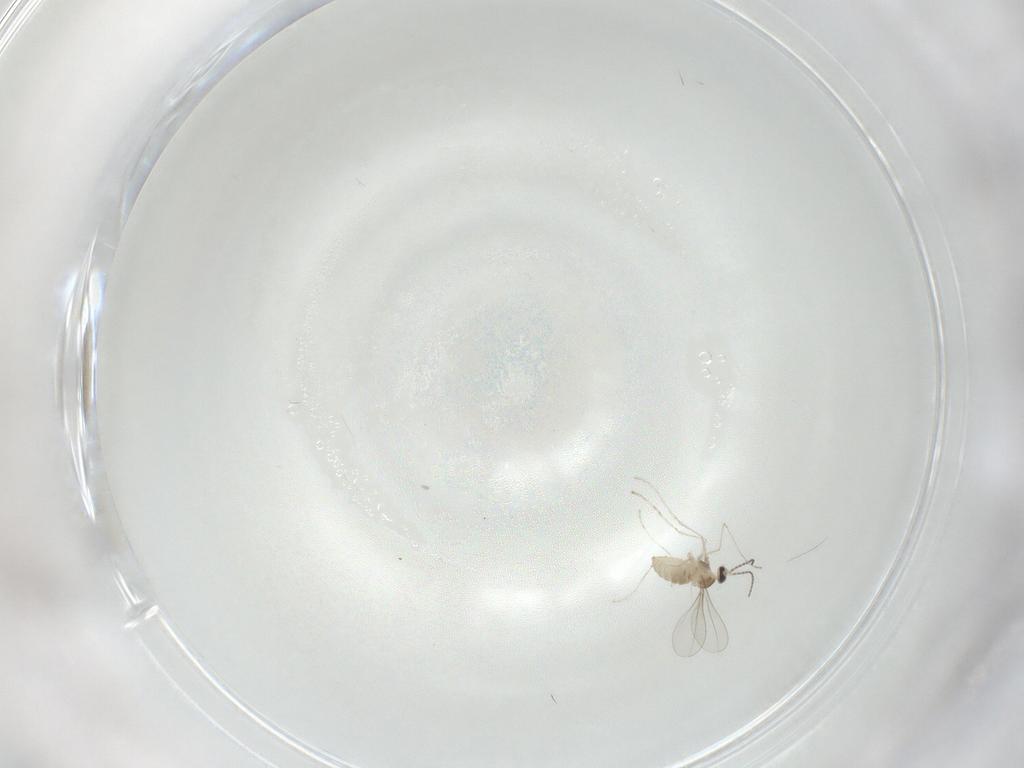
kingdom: Animalia
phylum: Arthropoda
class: Insecta
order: Diptera
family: Cecidomyiidae
